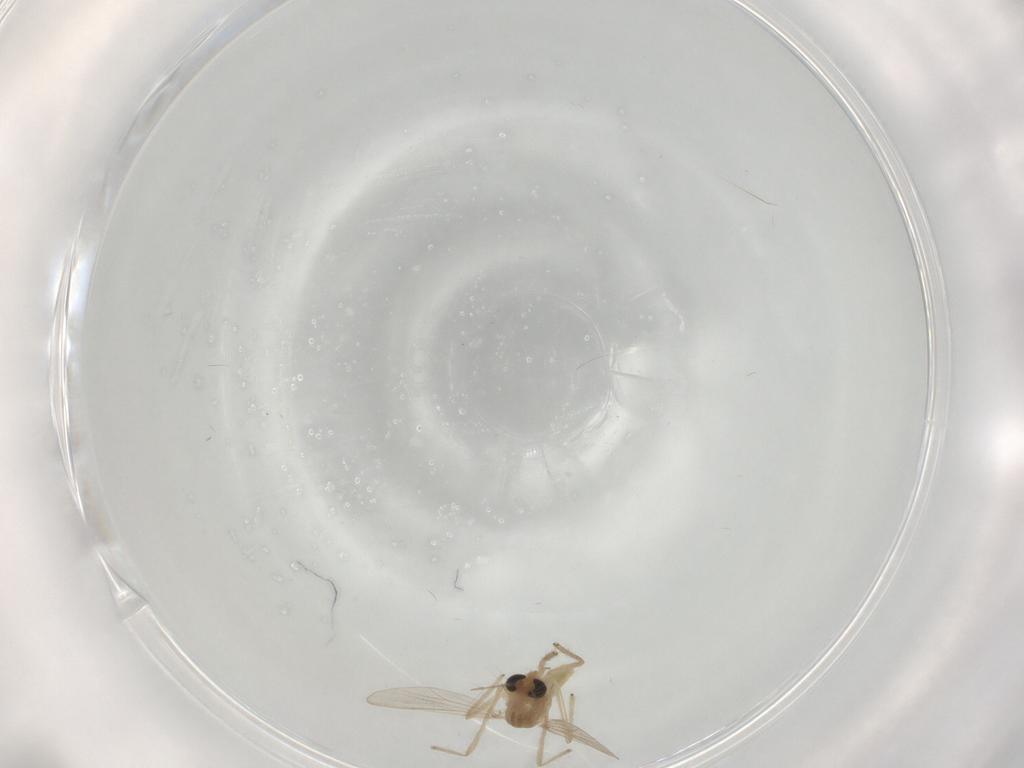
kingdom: Animalia
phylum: Arthropoda
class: Insecta
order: Diptera
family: Chironomidae
